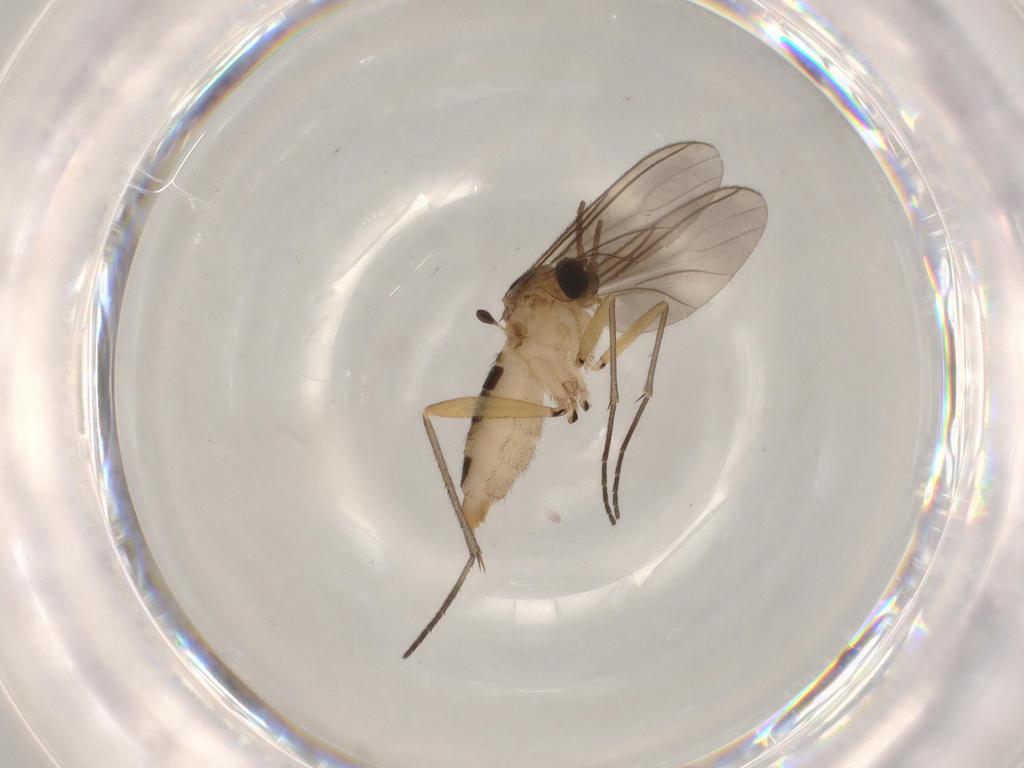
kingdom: Animalia
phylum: Arthropoda
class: Insecta
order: Diptera
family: Sciaridae
